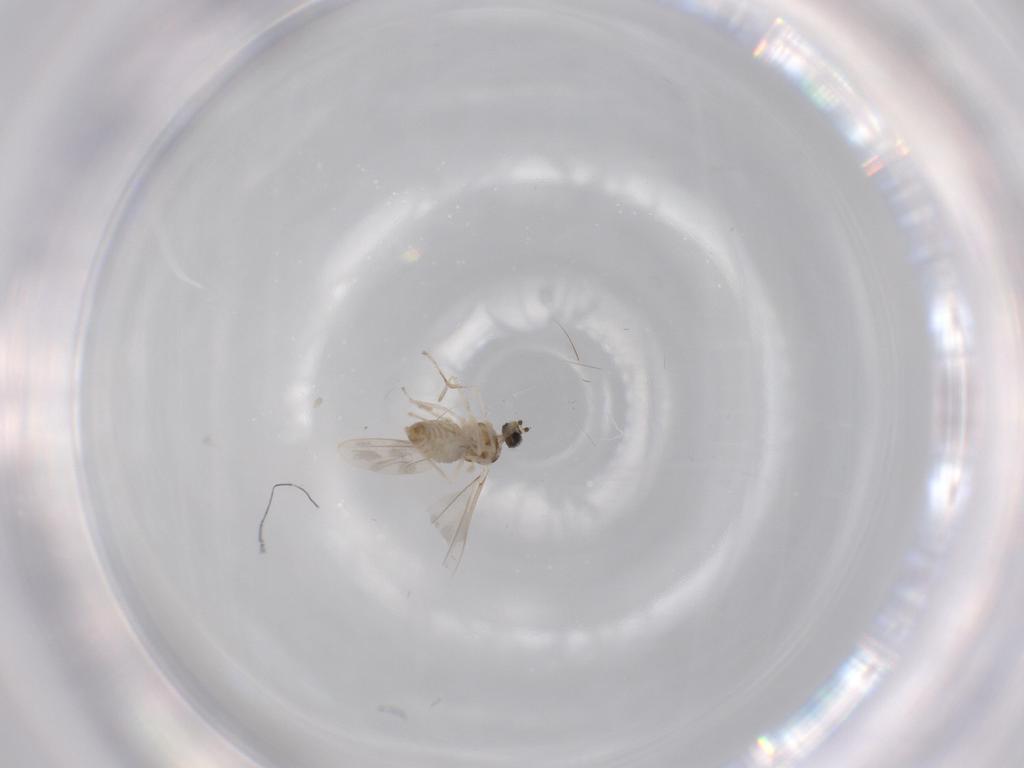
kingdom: Animalia
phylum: Arthropoda
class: Insecta
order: Diptera
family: Cecidomyiidae
